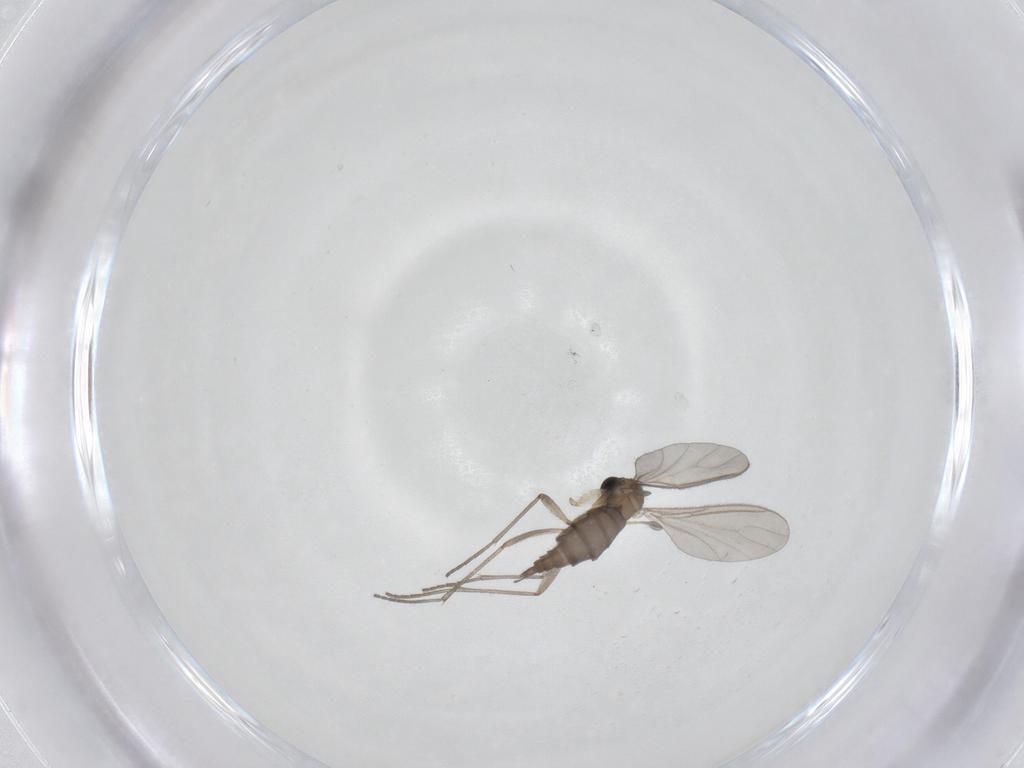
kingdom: Animalia
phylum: Arthropoda
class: Insecta
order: Diptera
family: Sciaridae
